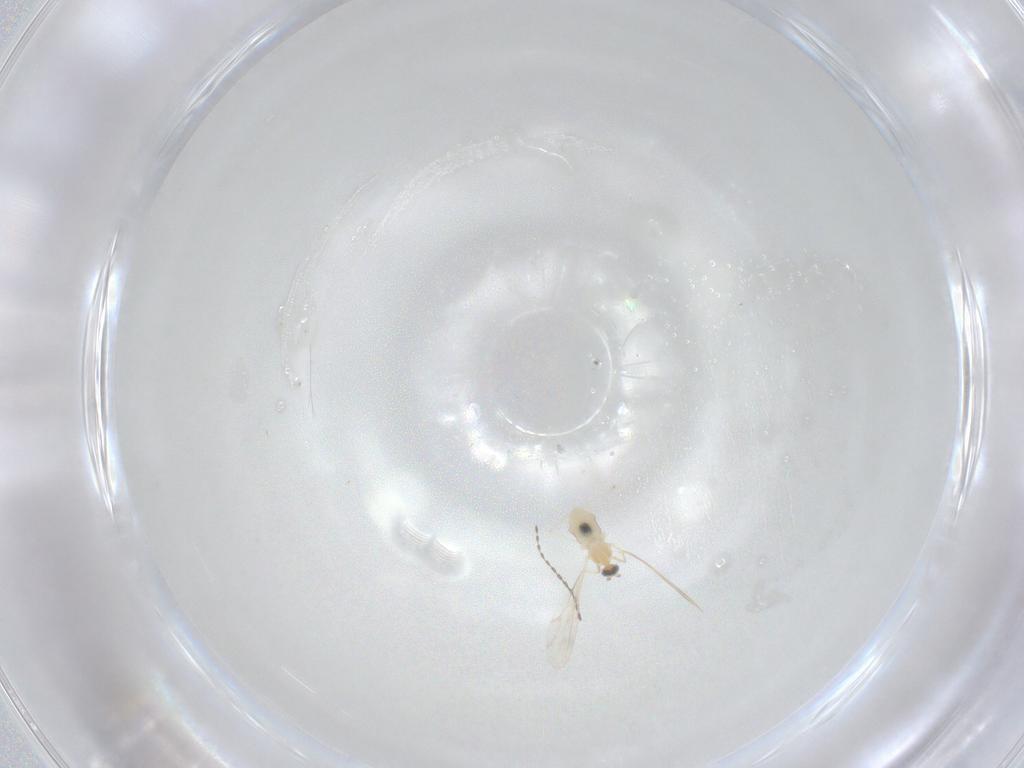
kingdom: Animalia
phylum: Arthropoda
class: Insecta
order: Diptera
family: Cecidomyiidae
